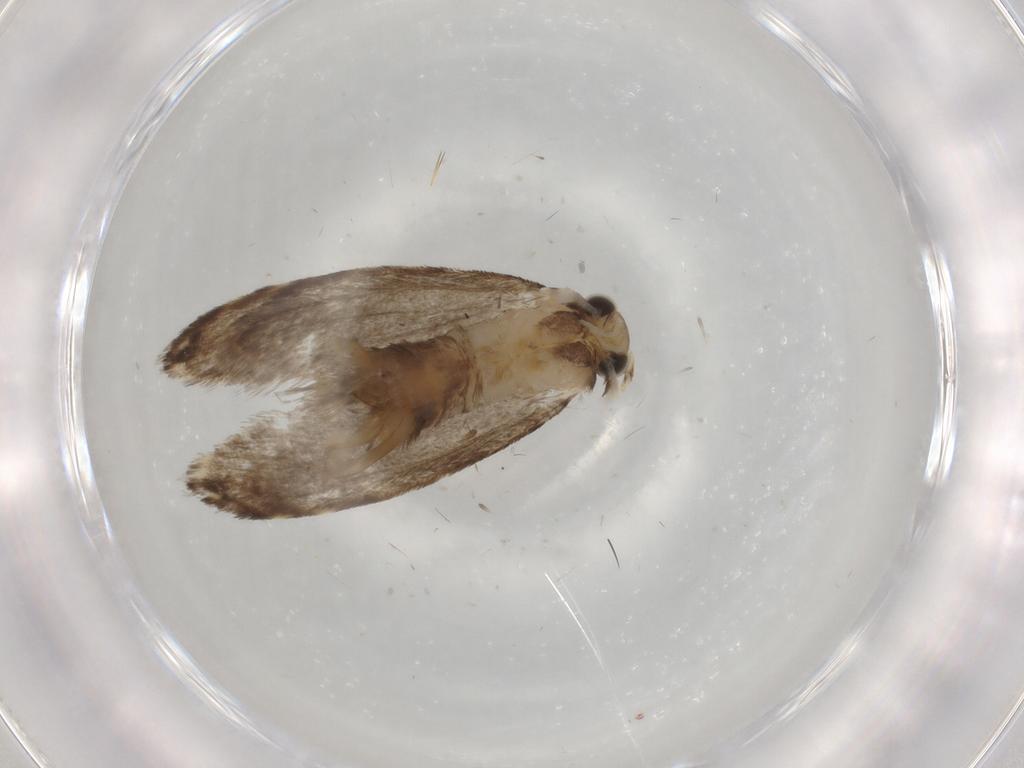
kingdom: Animalia
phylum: Arthropoda
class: Insecta
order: Lepidoptera
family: Tineidae
